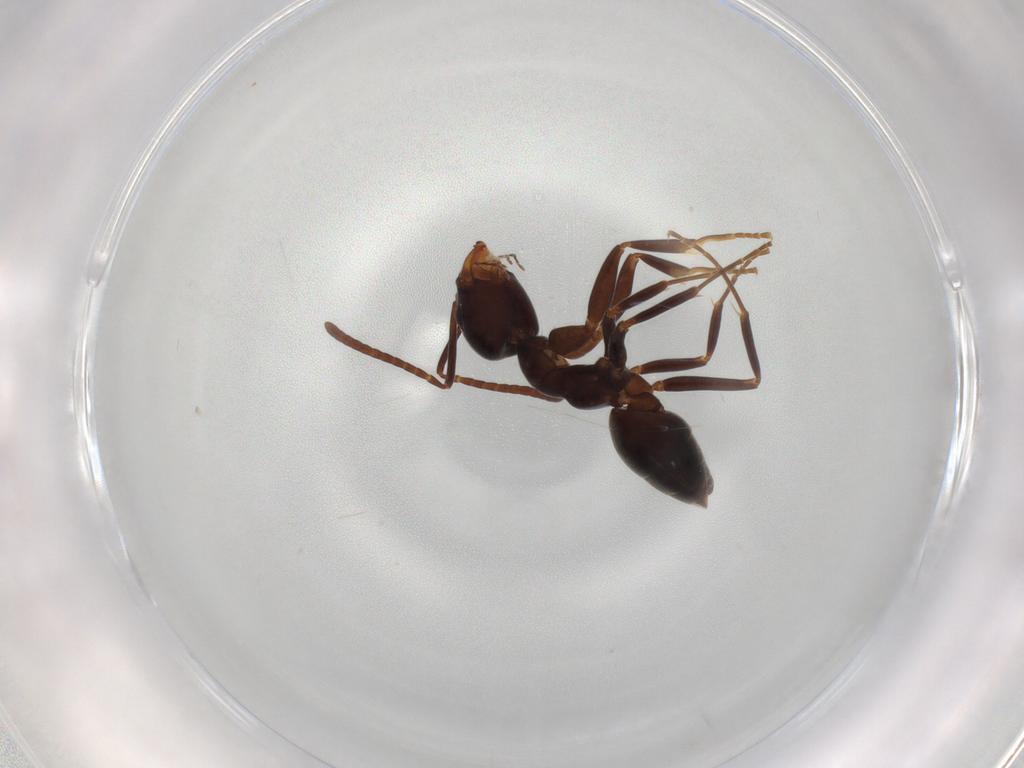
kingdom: Animalia
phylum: Arthropoda
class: Insecta
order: Hymenoptera
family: Formicidae
